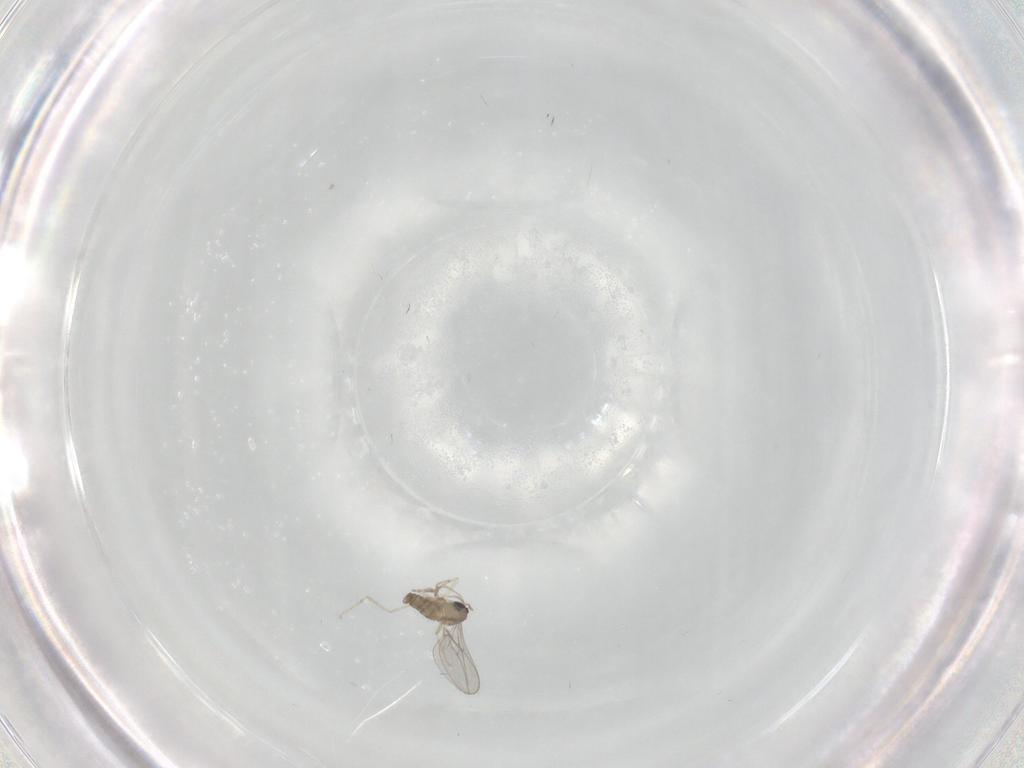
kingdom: Animalia
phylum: Arthropoda
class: Insecta
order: Diptera
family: Cecidomyiidae
